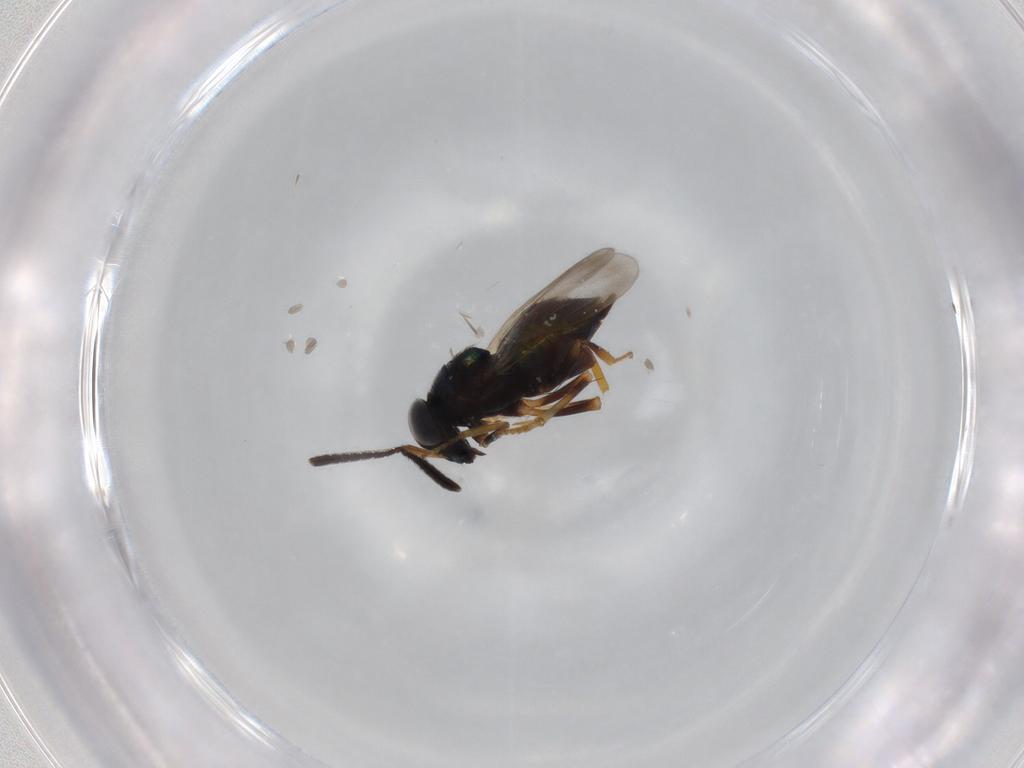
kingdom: Animalia
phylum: Arthropoda
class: Insecta
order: Hymenoptera
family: Encyrtidae
